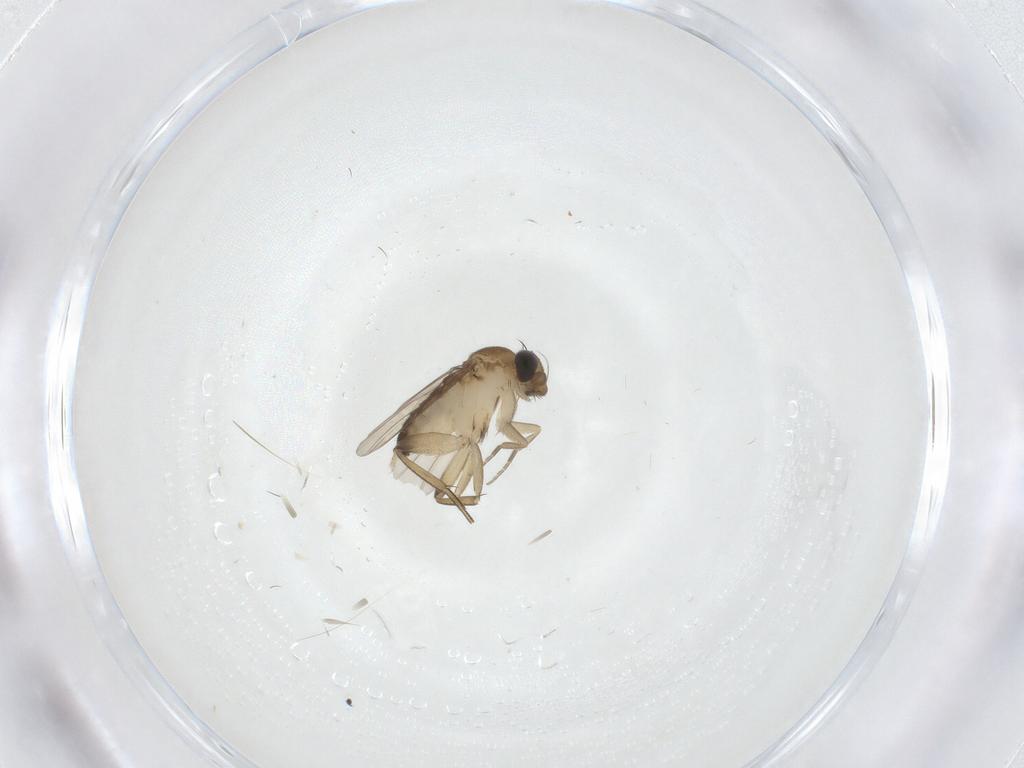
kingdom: Animalia
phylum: Arthropoda
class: Insecta
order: Diptera
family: Phoridae
